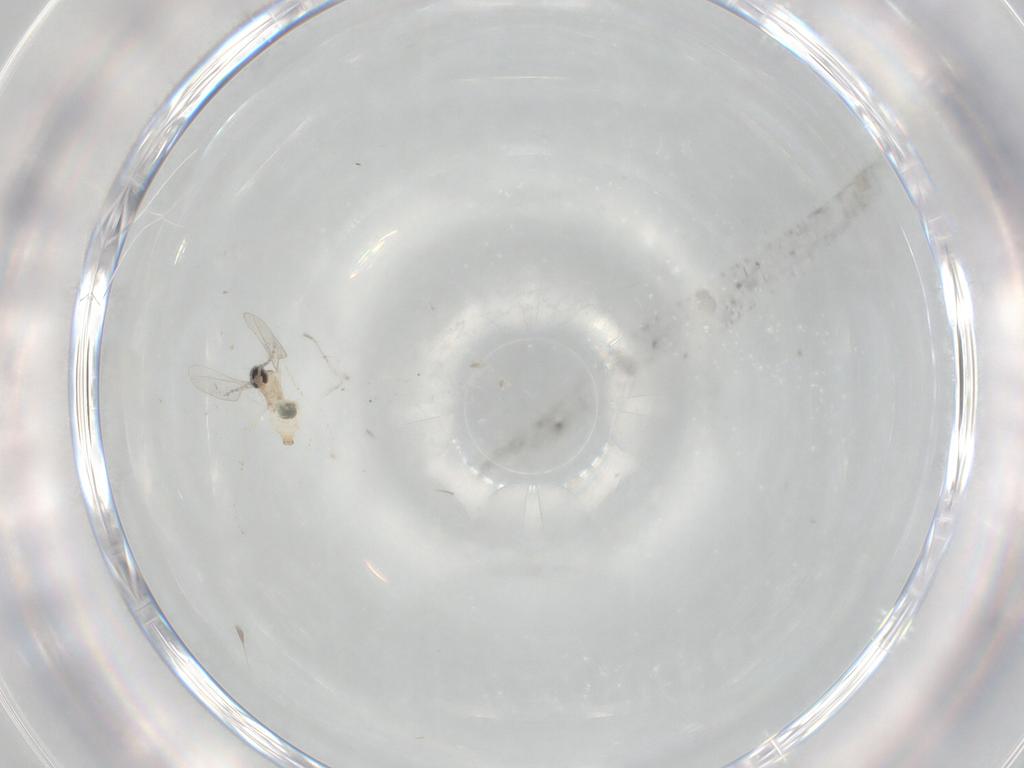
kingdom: Animalia
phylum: Arthropoda
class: Insecta
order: Diptera
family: Cecidomyiidae
